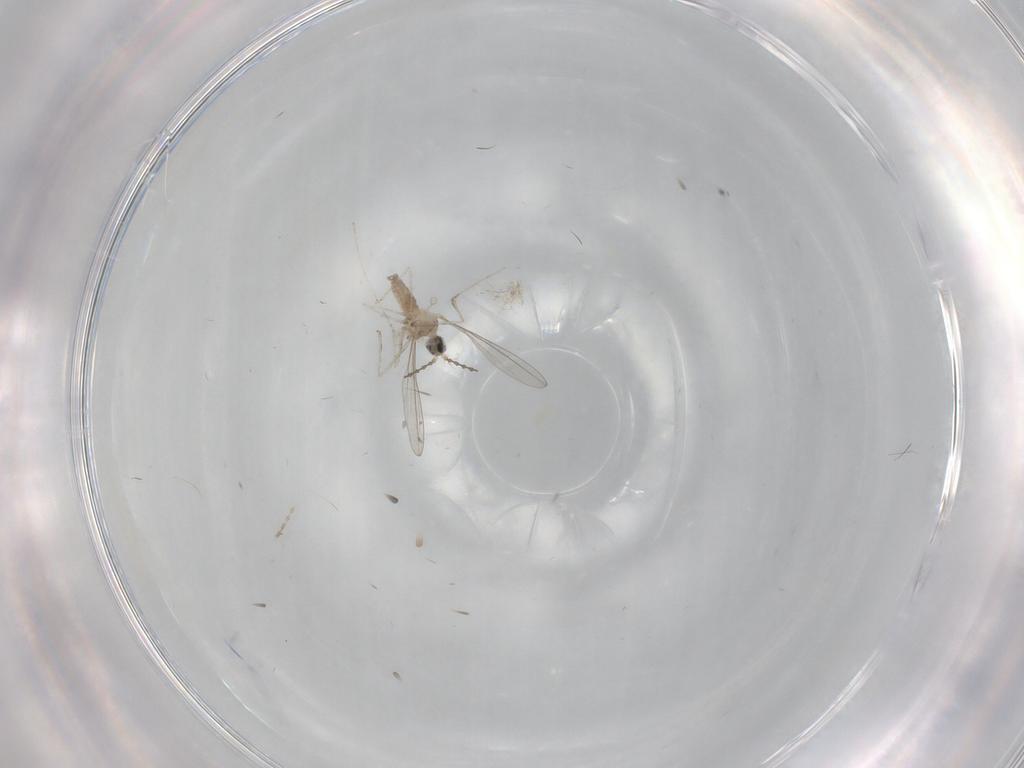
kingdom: Animalia
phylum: Arthropoda
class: Insecta
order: Diptera
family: Cecidomyiidae
